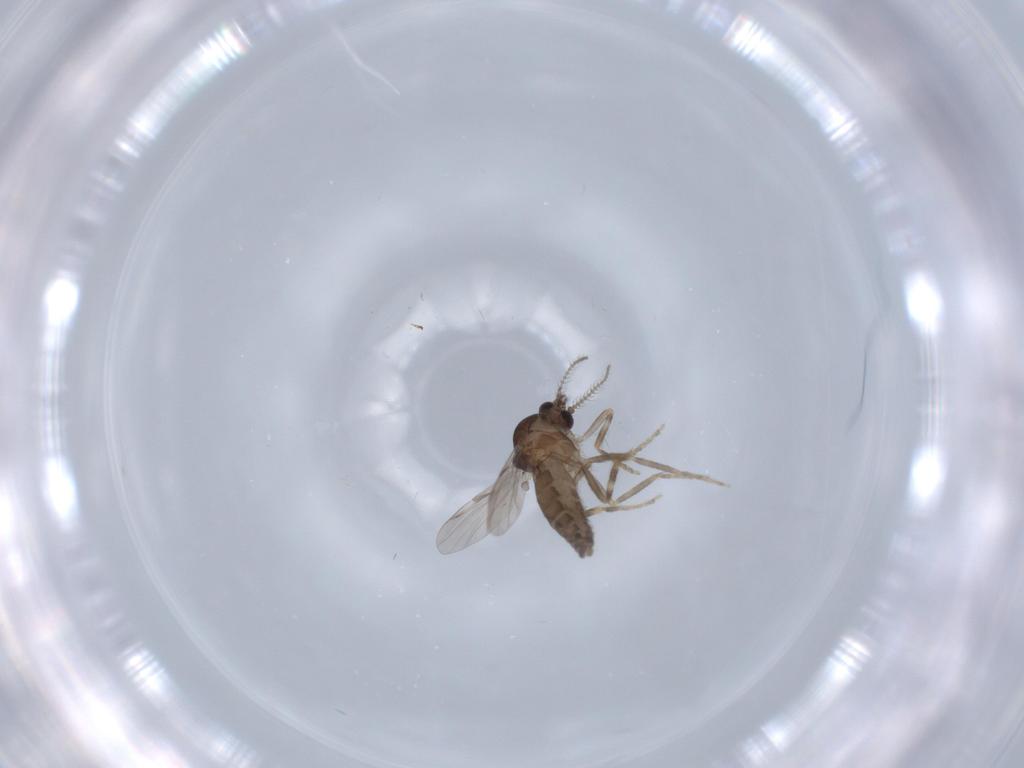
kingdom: Animalia
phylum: Arthropoda
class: Insecta
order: Diptera
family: Ceratopogonidae
